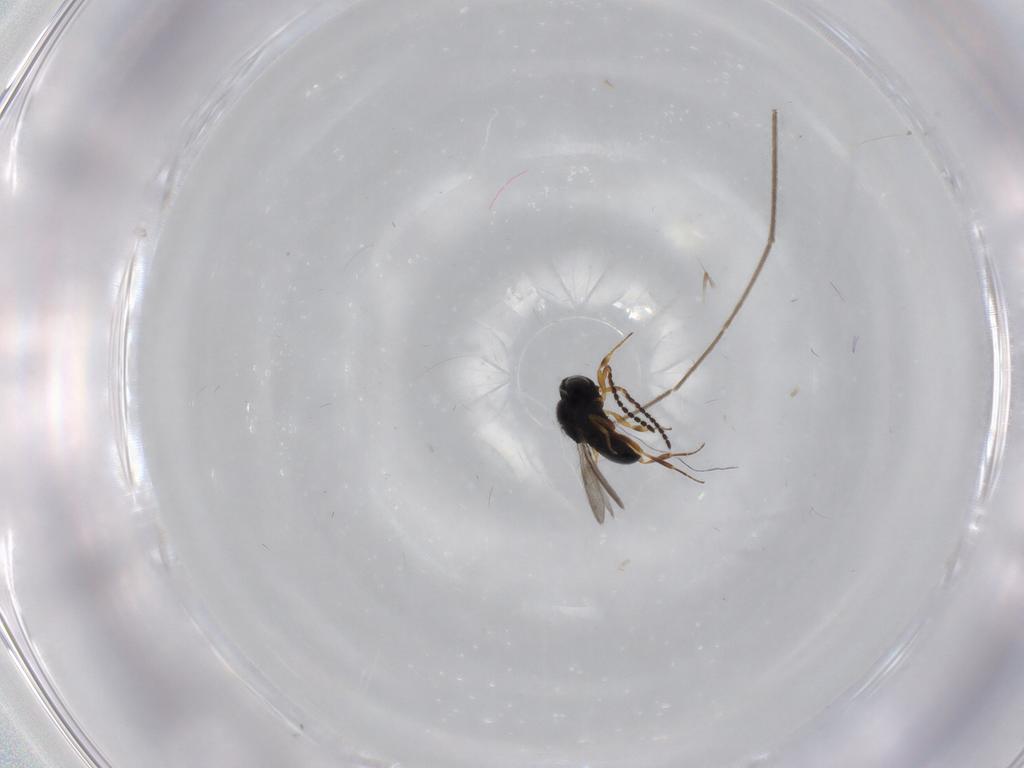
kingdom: Animalia
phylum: Arthropoda
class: Insecta
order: Hymenoptera
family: Scelionidae
